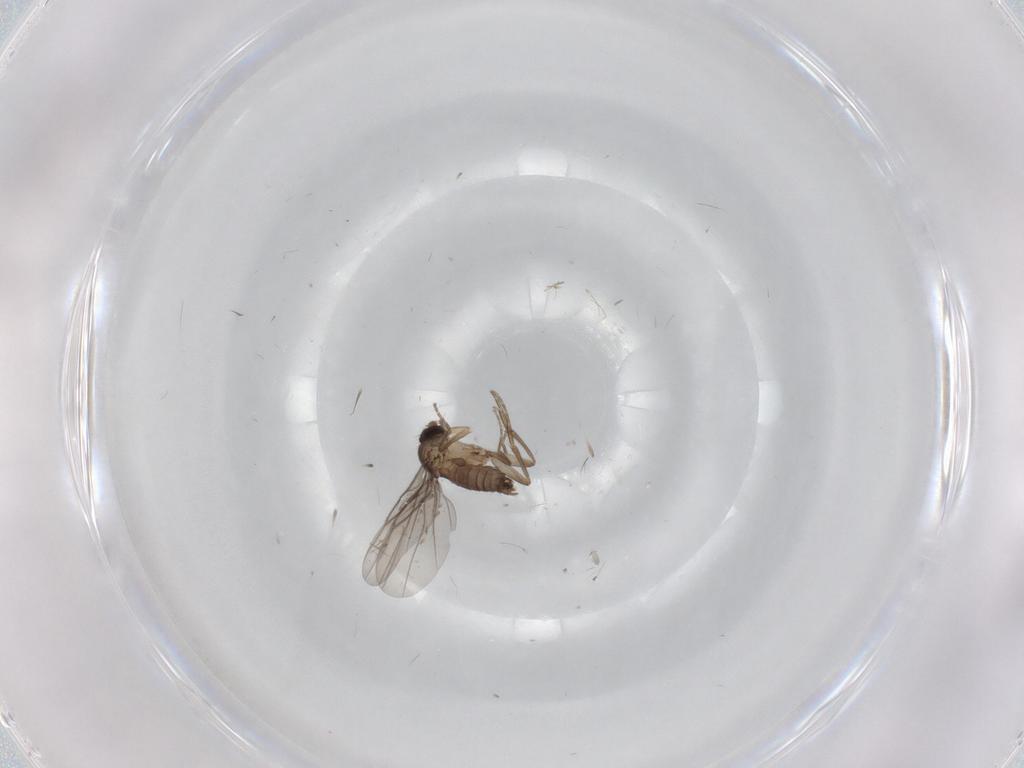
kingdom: Animalia
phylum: Arthropoda
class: Insecta
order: Diptera
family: Phoridae
